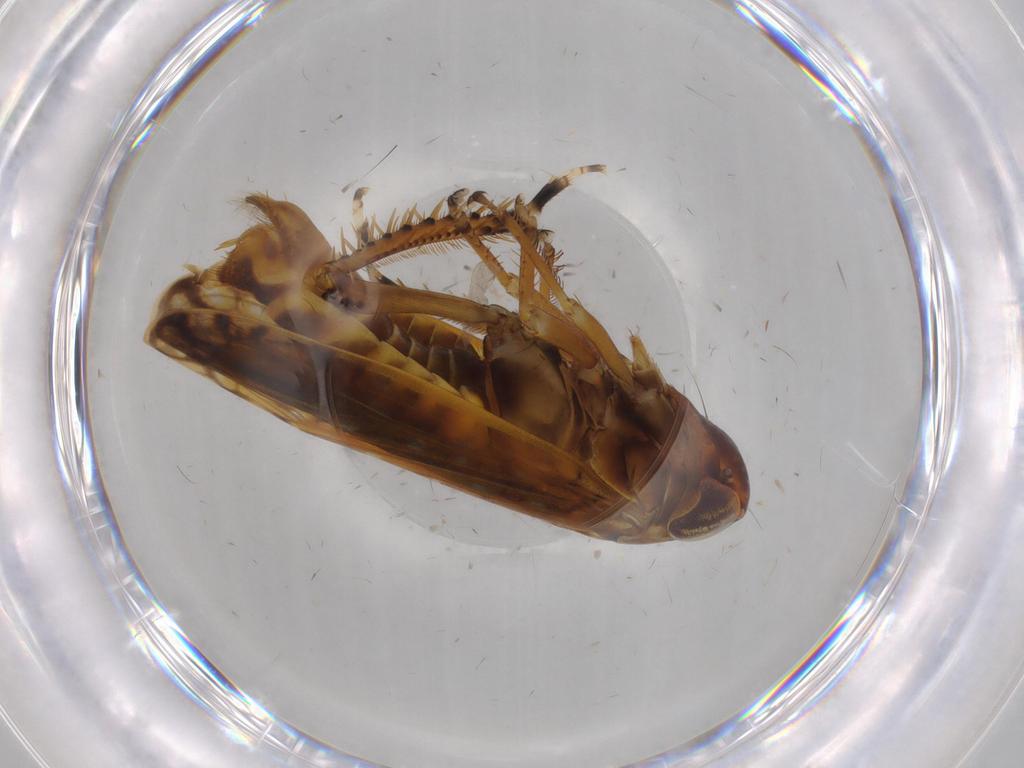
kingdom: Animalia
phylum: Arthropoda
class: Insecta
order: Hemiptera
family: Cicadellidae
